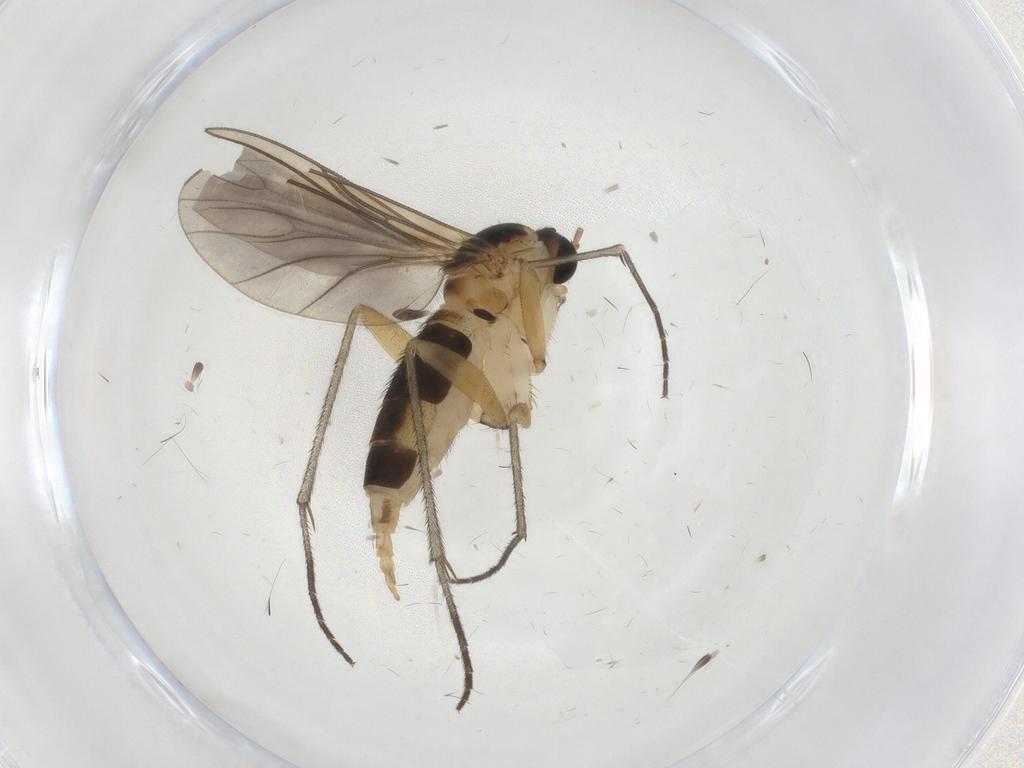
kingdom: Animalia
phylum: Arthropoda
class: Insecta
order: Diptera
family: Sciaridae
